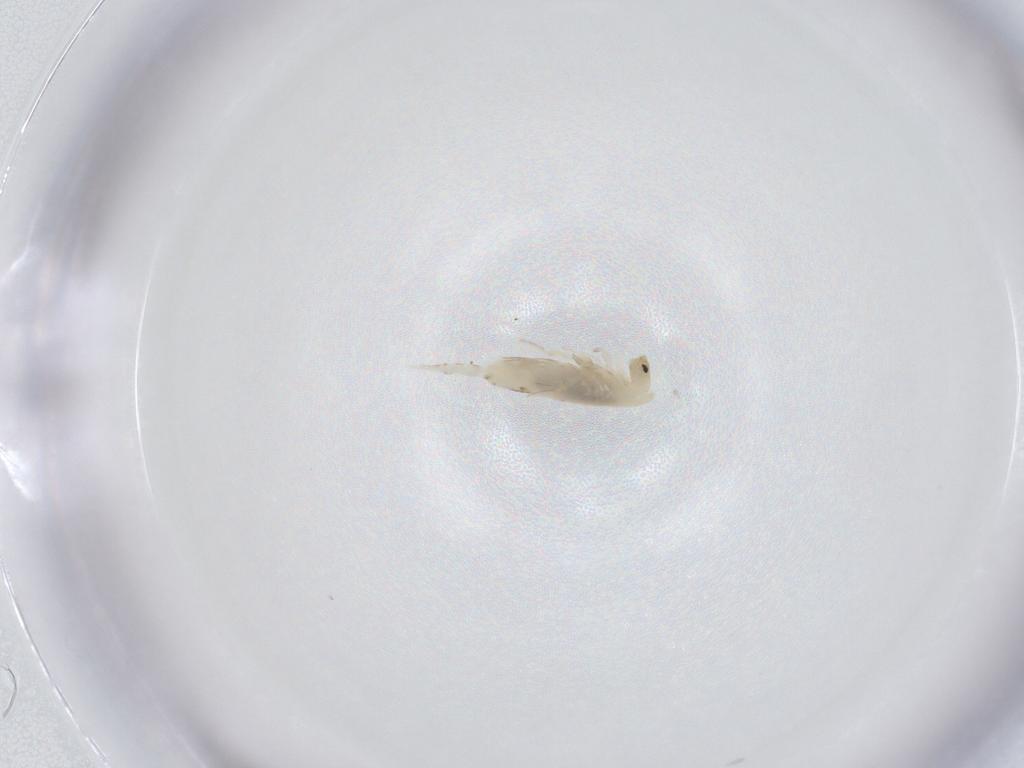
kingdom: Animalia
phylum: Arthropoda
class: Collembola
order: Entomobryomorpha
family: Entomobryidae
